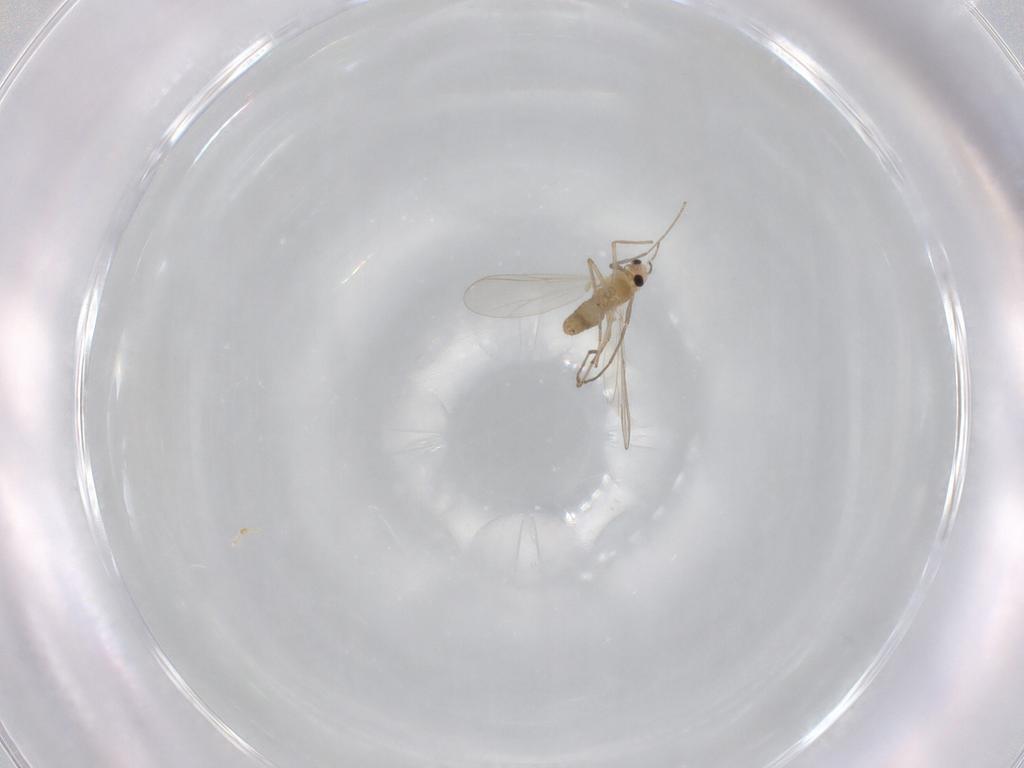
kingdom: Animalia
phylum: Arthropoda
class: Insecta
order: Diptera
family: Chironomidae
